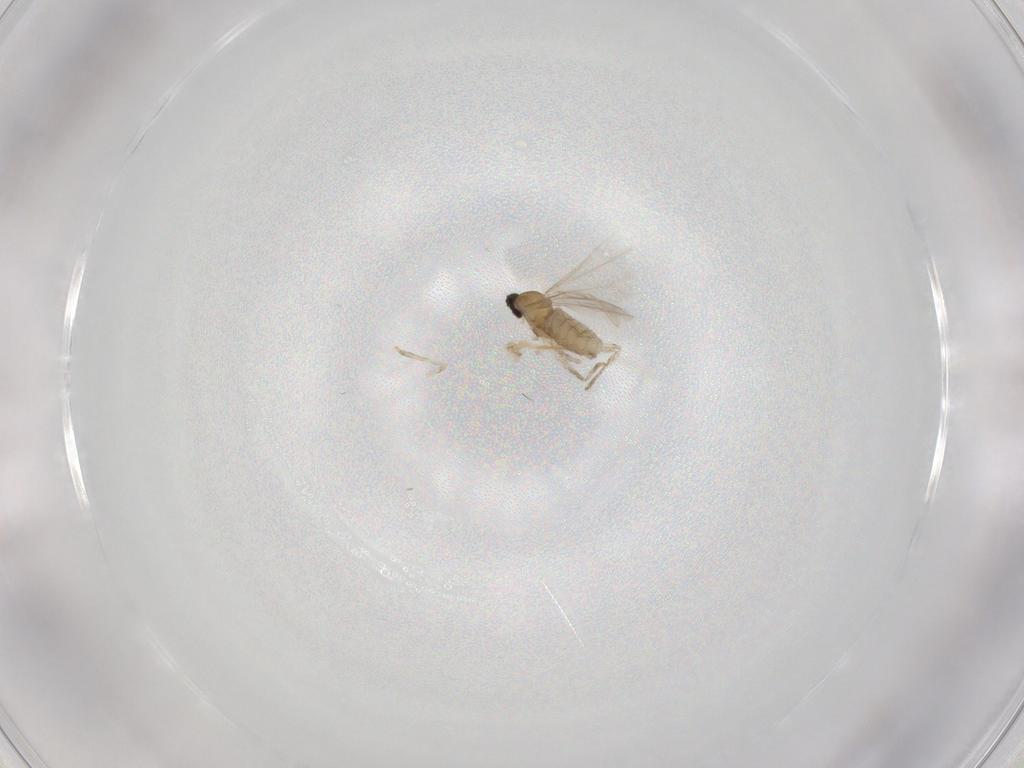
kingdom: Animalia
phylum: Arthropoda
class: Insecta
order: Diptera
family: Cecidomyiidae
